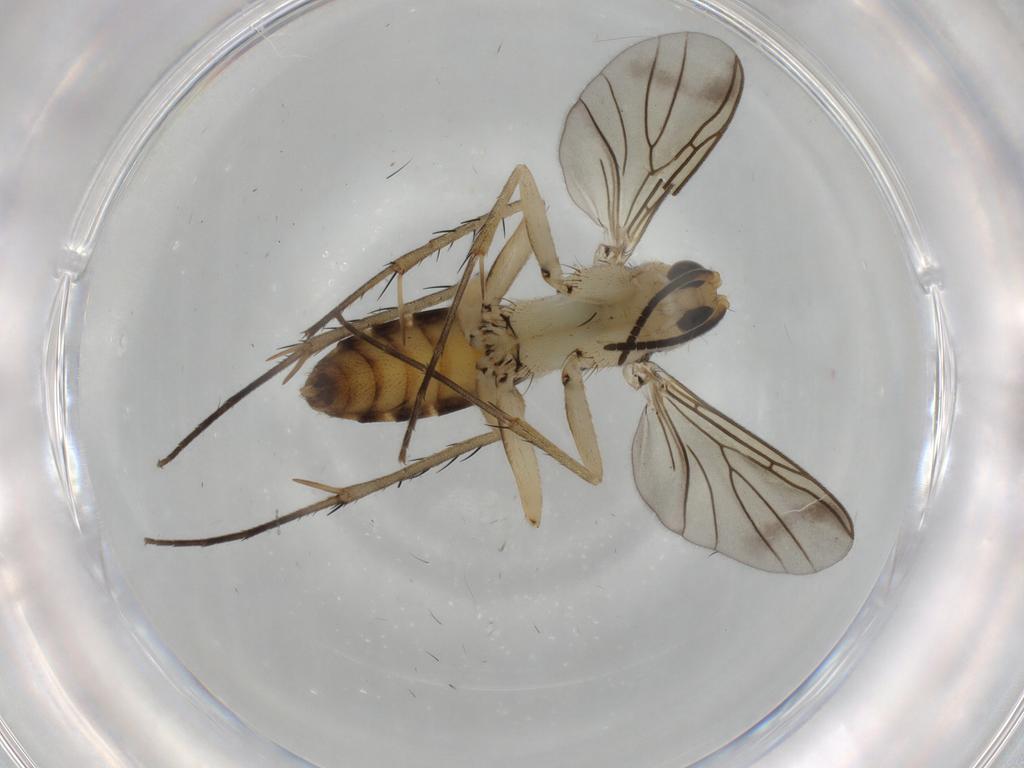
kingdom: Animalia
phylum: Arthropoda
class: Insecta
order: Diptera
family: Mycetophilidae
